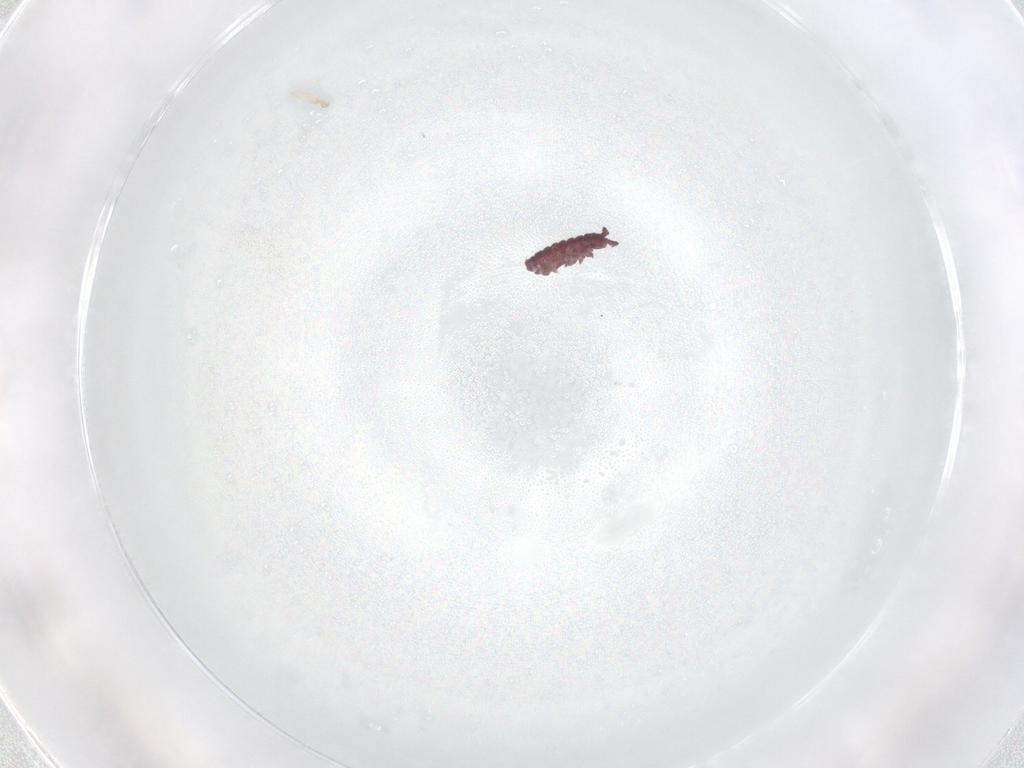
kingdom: Animalia
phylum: Arthropoda
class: Collembola
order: Poduromorpha
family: Hypogastruridae
